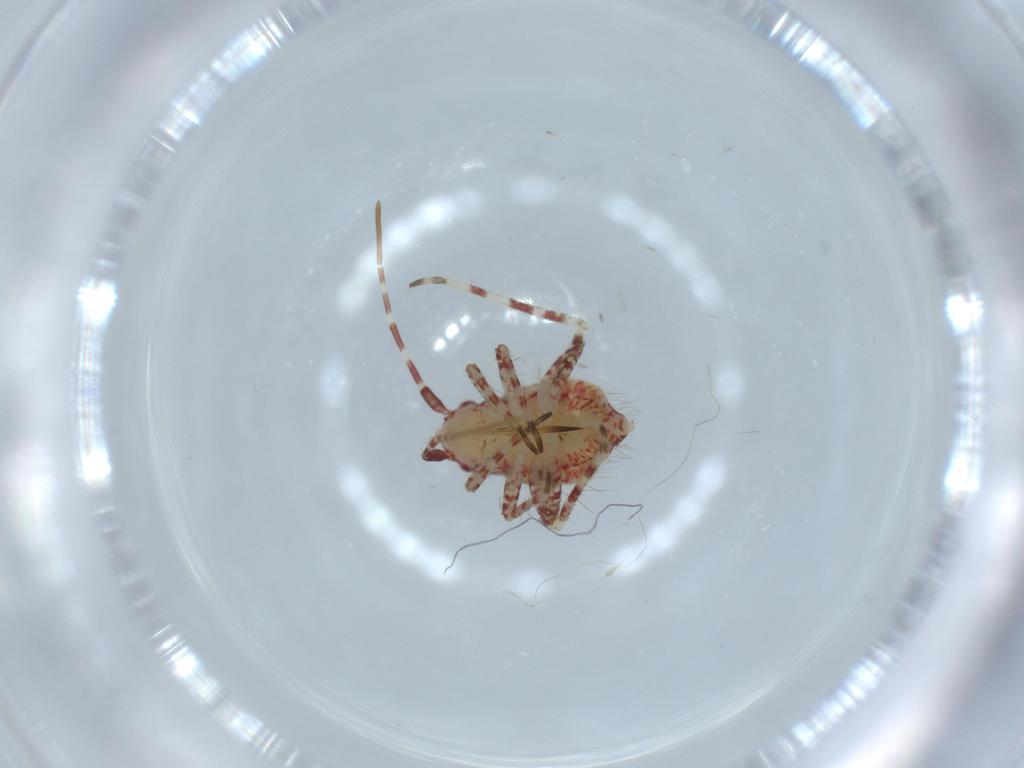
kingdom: Animalia
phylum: Arthropoda
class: Insecta
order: Hemiptera
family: Miridae
